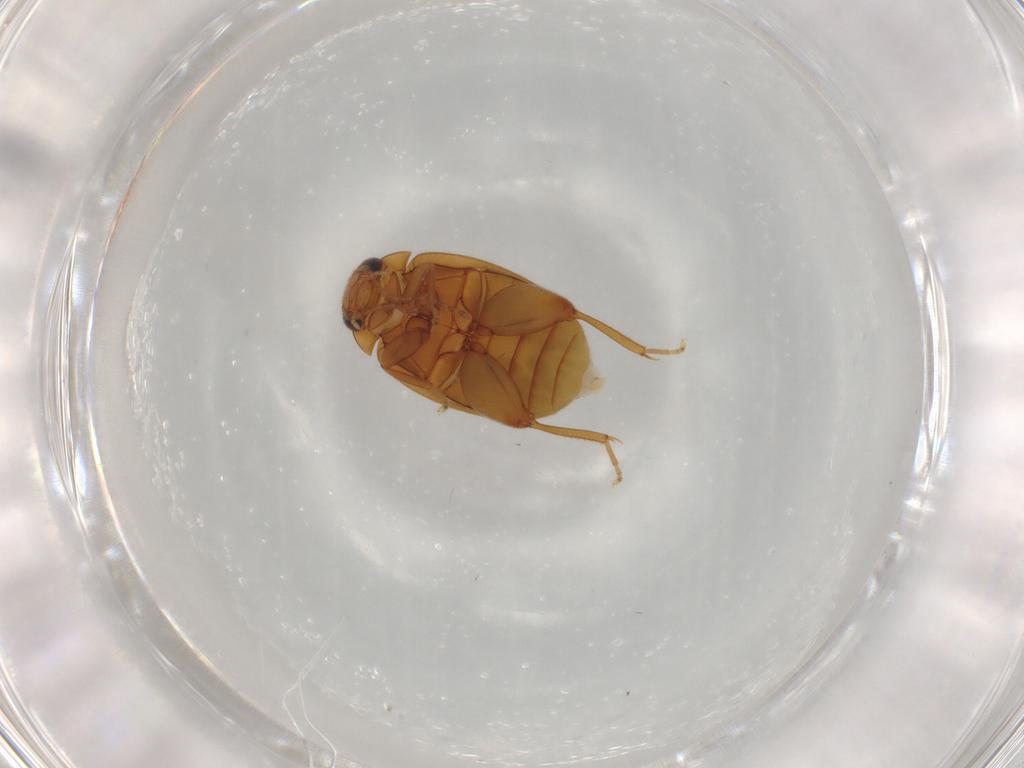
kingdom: Animalia
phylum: Arthropoda
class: Insecta
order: Coleoptera
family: Scirtidae
